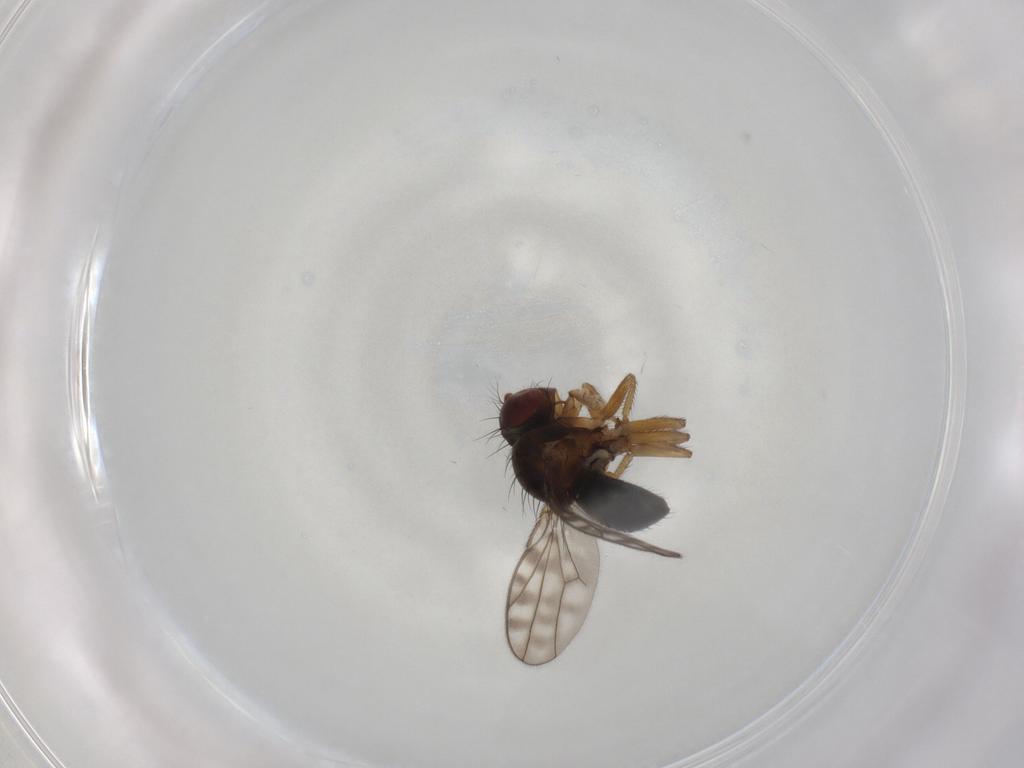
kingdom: Animalia
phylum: Arthropoda
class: Insecta
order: Diptera
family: Ephydridae
